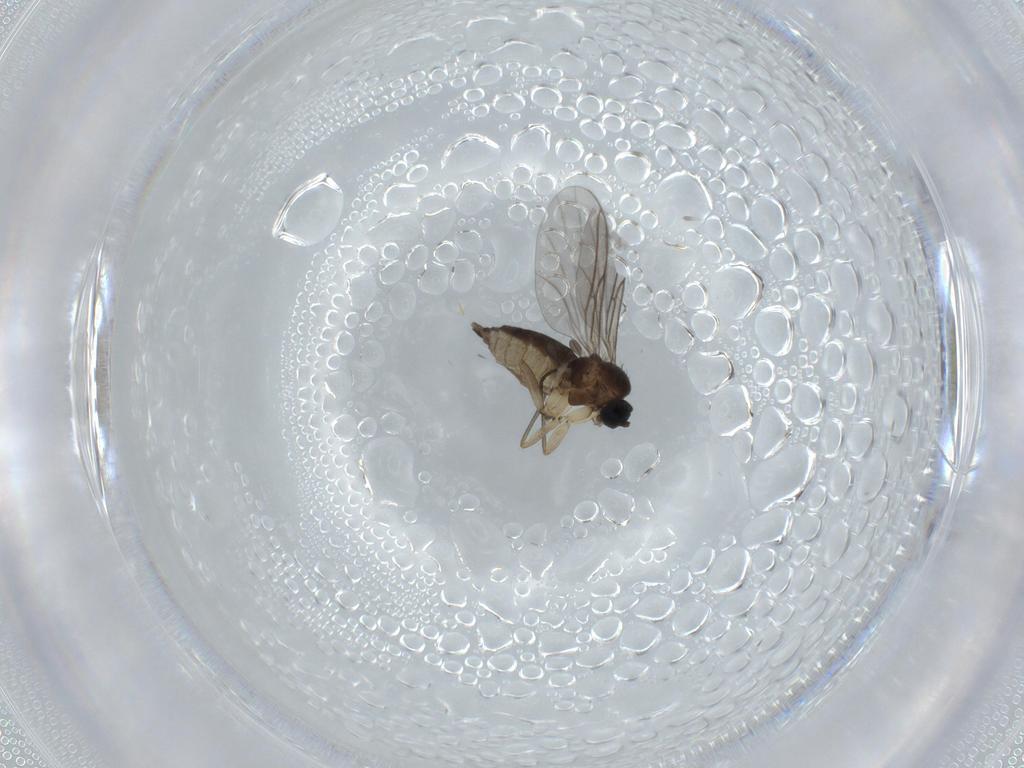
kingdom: Animalia
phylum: Arthropoda
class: Insecta
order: Diptera
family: Sciaridae
